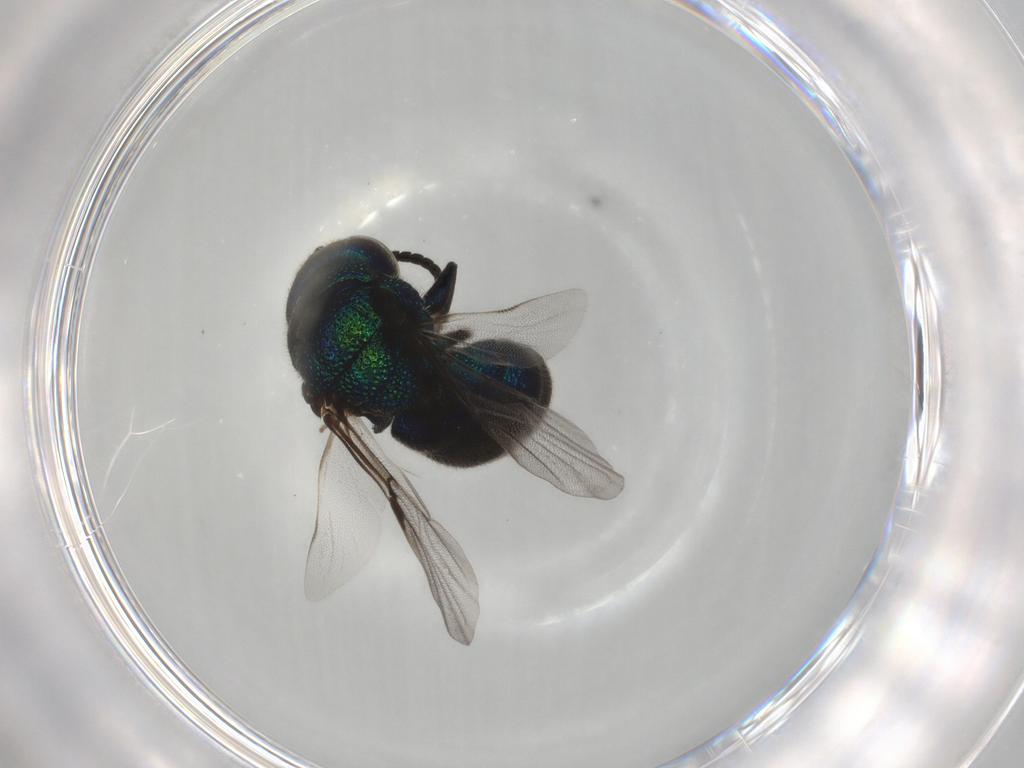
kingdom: Animalia
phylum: Arthropoda
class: Insecta
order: Hymenoptera
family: Chrysididae
